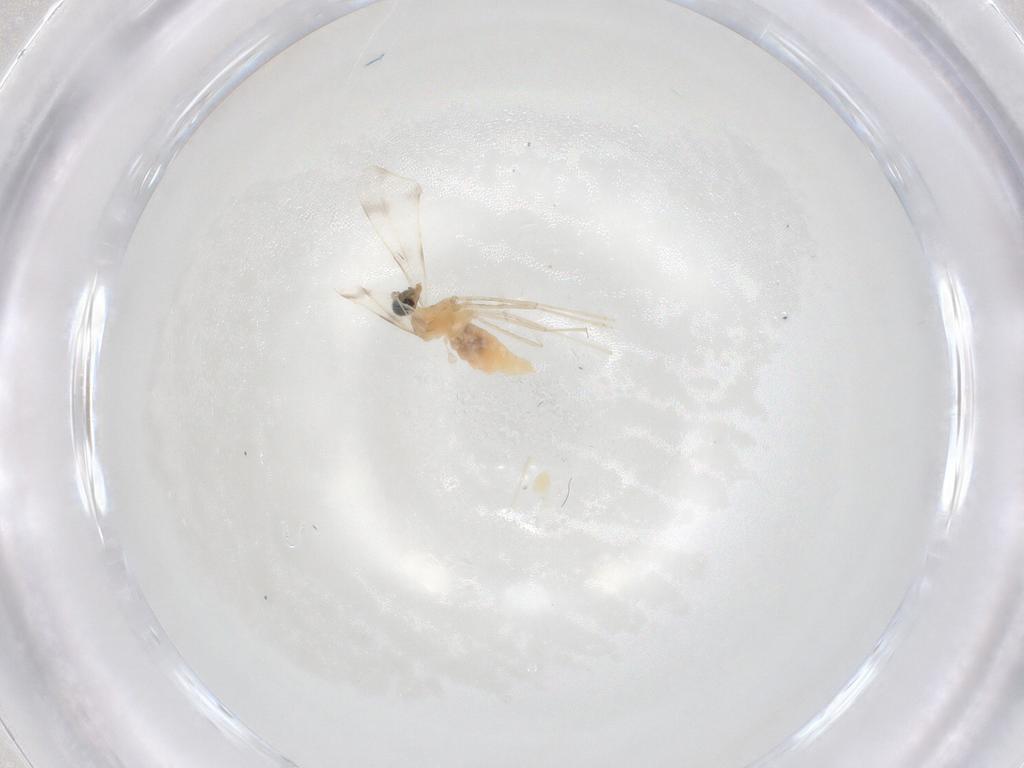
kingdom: Animalia
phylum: Arthropoda
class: Insecta
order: Diptera
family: Cecidomyiidae
